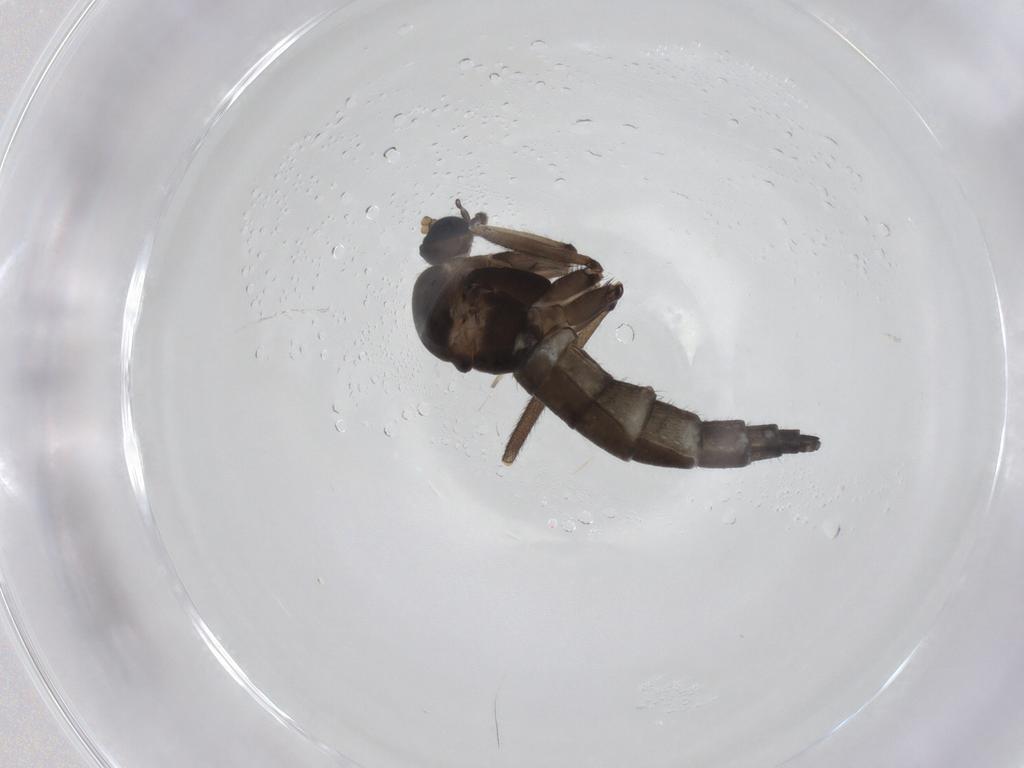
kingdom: Animalia
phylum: Arthropoda
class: Insecta
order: Diptera
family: Sciaridae
